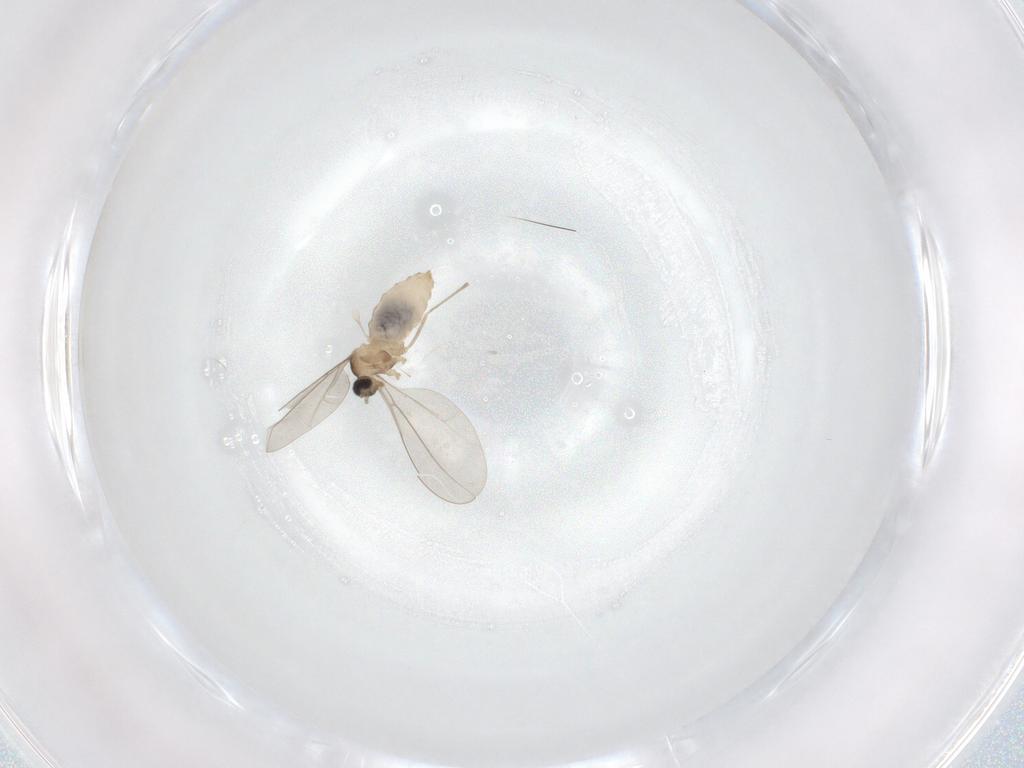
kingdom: Animalia
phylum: Arthropoda
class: Insecta
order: Diptera
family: Cecidomyiidae
